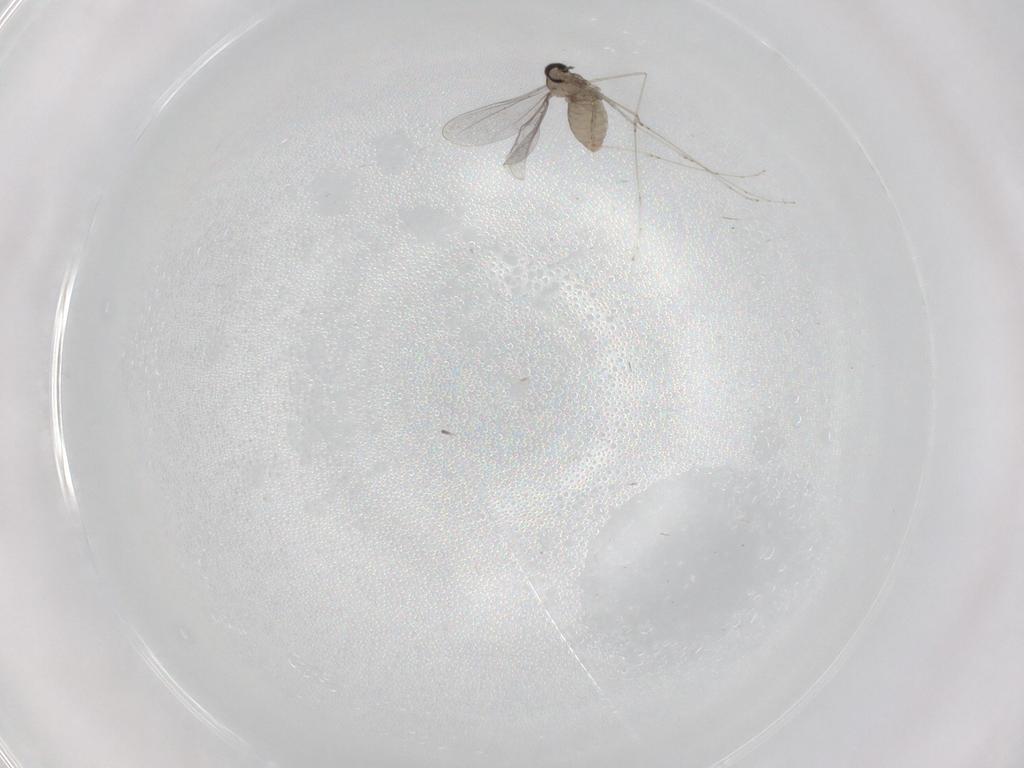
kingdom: Animalia
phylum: Arthropoda
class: Insecta
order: Diptera
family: Cecidomyiidae
